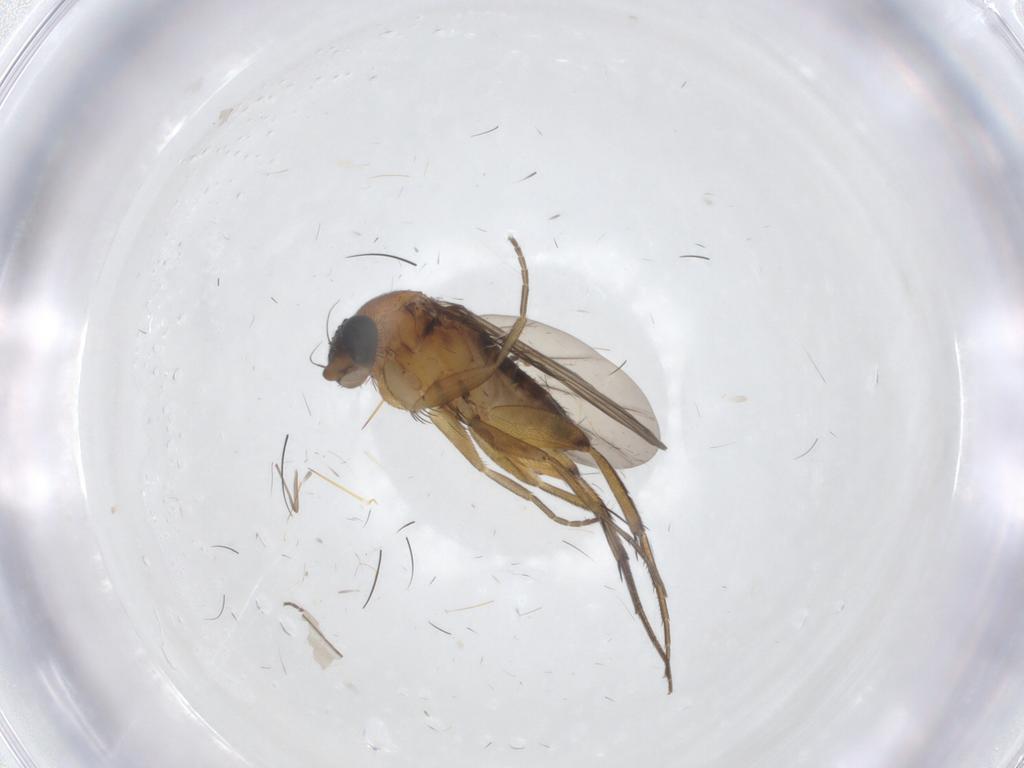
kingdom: Animalia
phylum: Arthropoda
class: Insecta
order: Diptera
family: Phoridae
